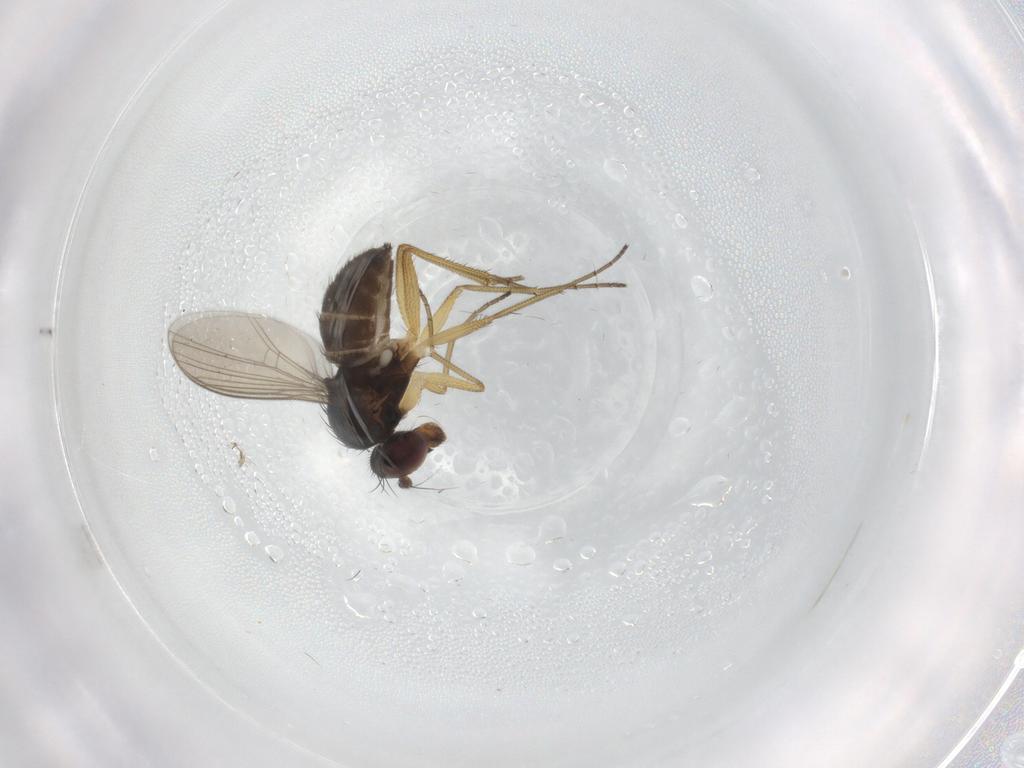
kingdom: Animalia
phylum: Arthropoda
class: Insecta
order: Diptera
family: Dolichopodidae
